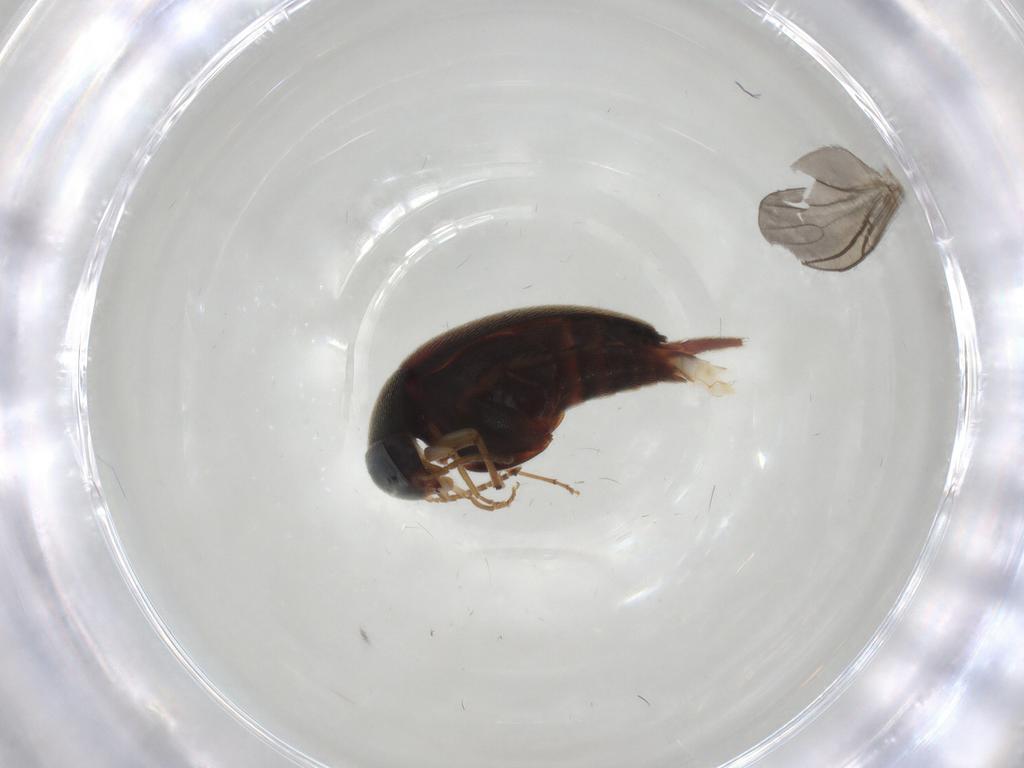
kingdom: Animalia
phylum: Arthropoda
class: Insecta
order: Coleoptera
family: Mordellidae
